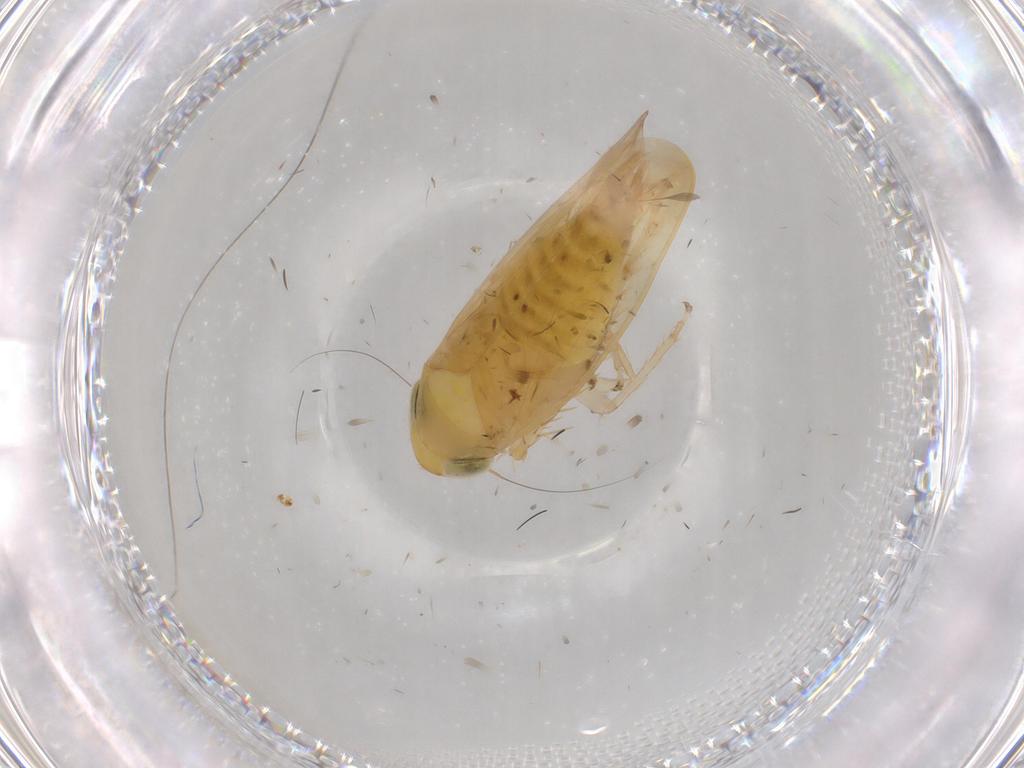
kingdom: Animalia
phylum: Arthropoda
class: Insecta
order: Hemiptera
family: Cicadellidae
